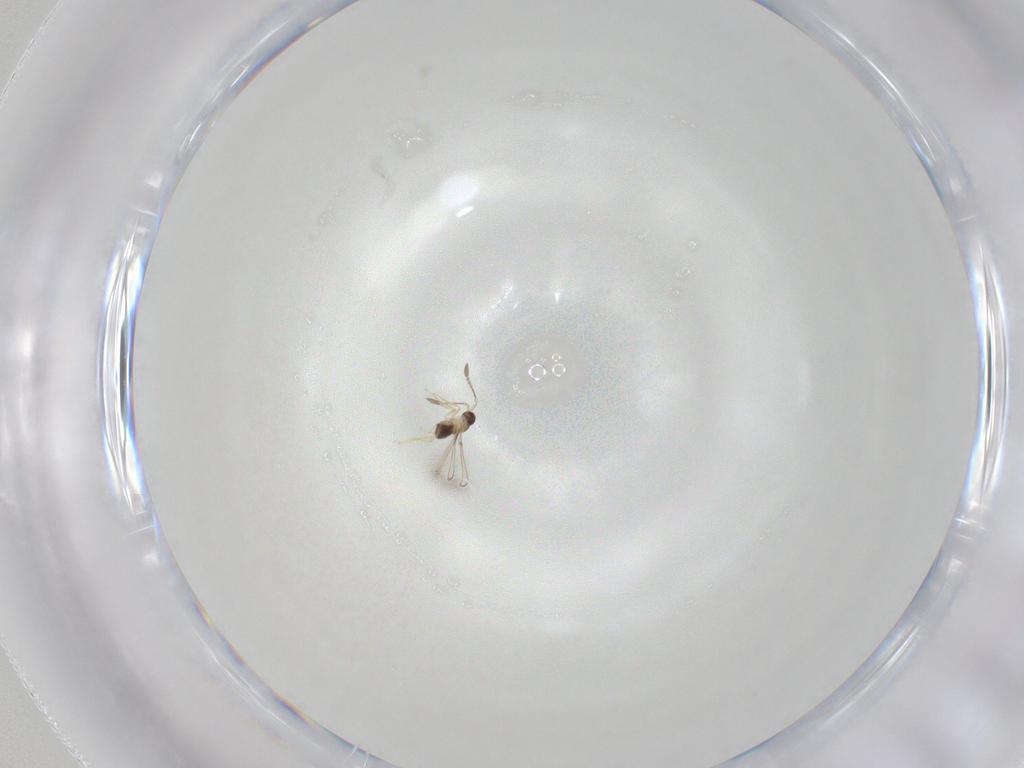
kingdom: Animalia
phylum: Arthropoda
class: Insecta
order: Hymenoptera
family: Mymaridae
